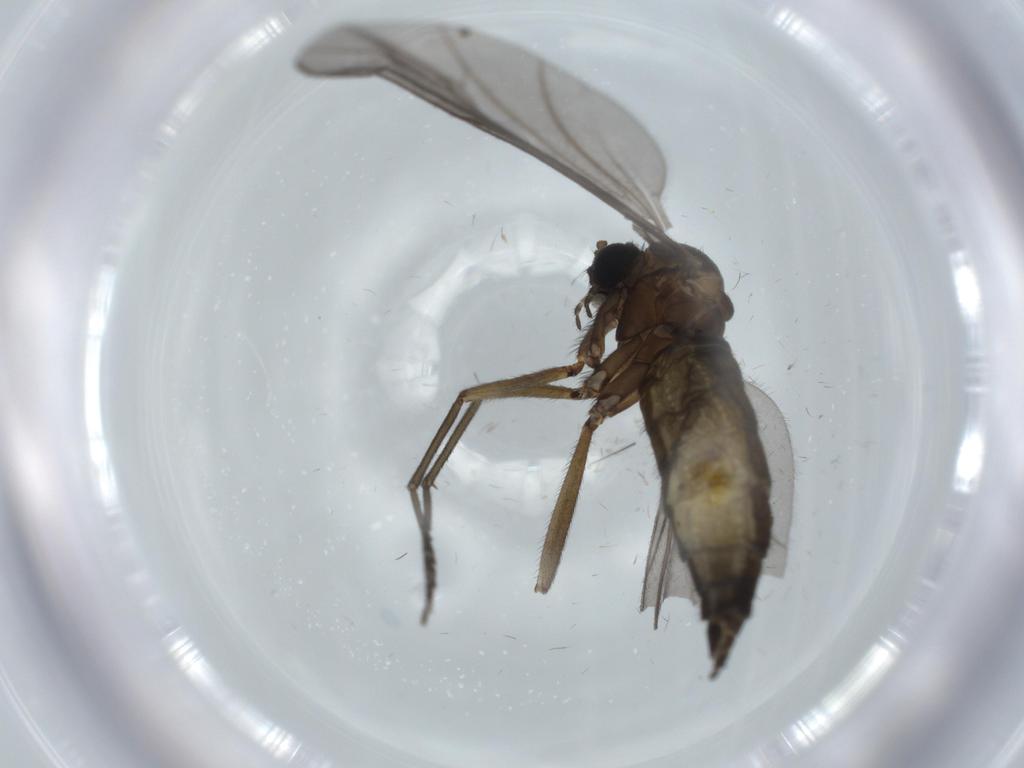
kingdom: Animalia
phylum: Arthropoda
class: Insecta
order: Diptera
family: Sciaridae
